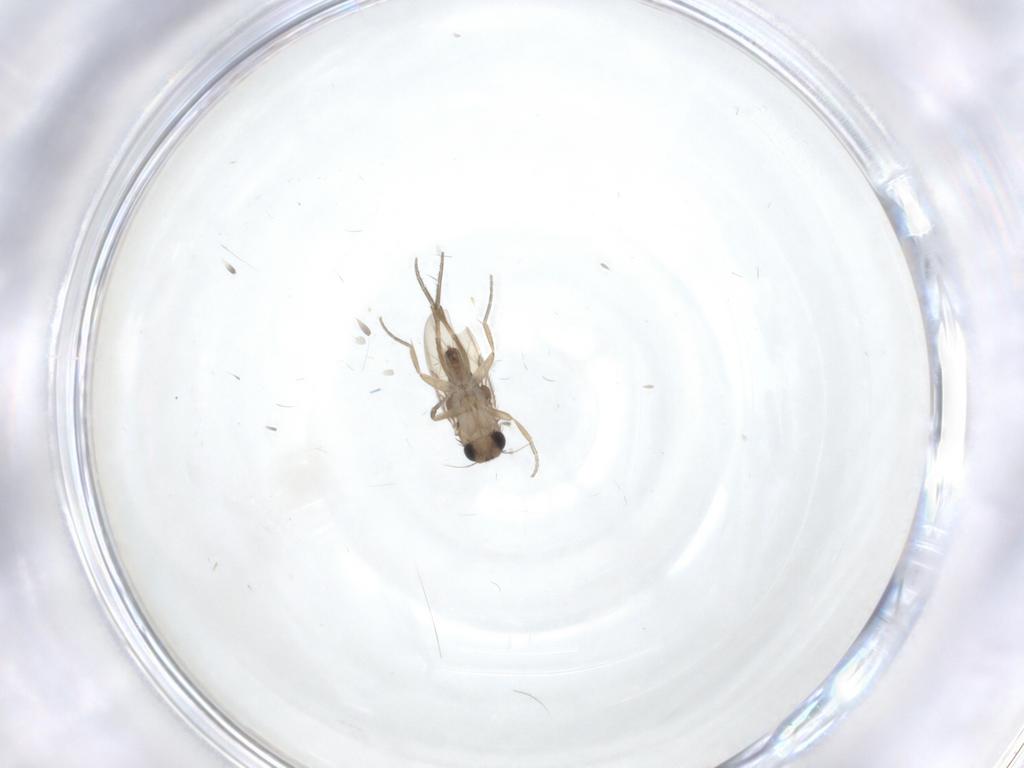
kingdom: Animalia
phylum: Arthropoda
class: Insecta
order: Diptera
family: Phoridae
